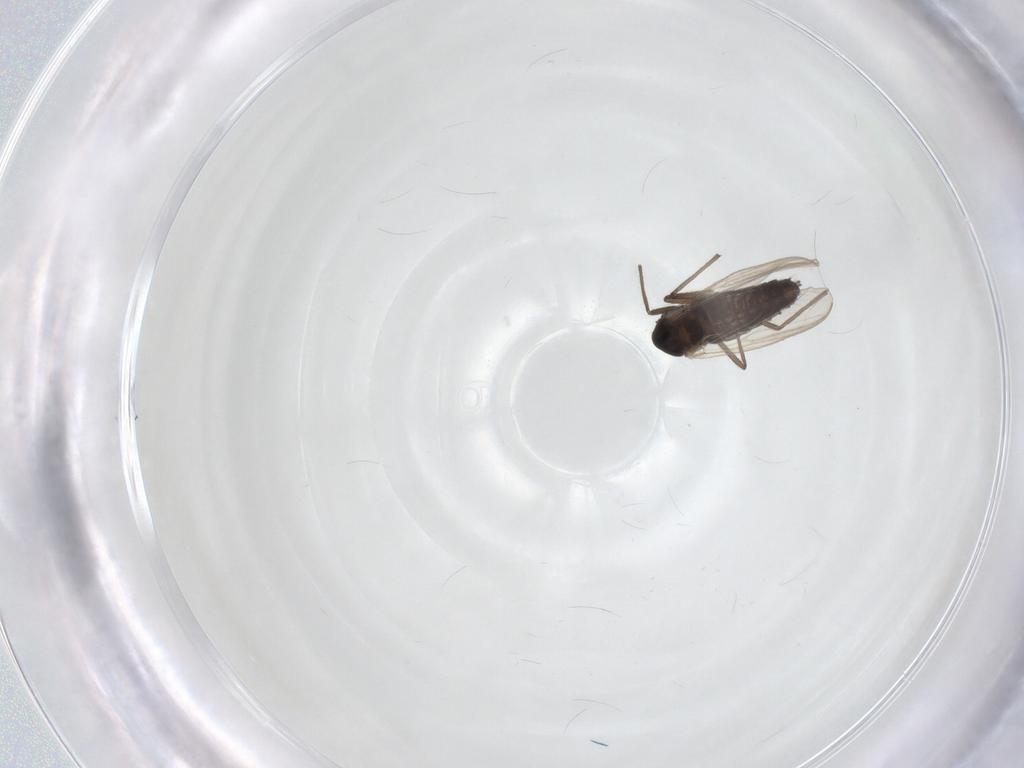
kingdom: Animalia
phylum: Arthropoda
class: Insecta
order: Diptera
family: Chironomidae
